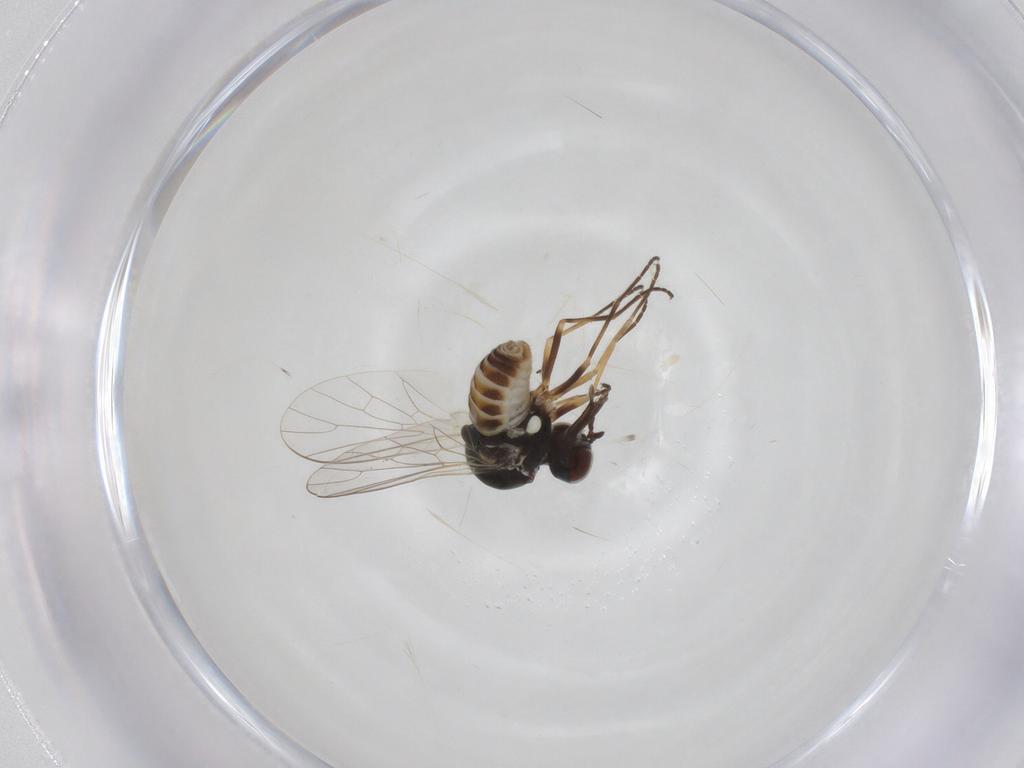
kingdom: Animalia
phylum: Arthropoda
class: Insecta
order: Diptera
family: Bombyliidae
